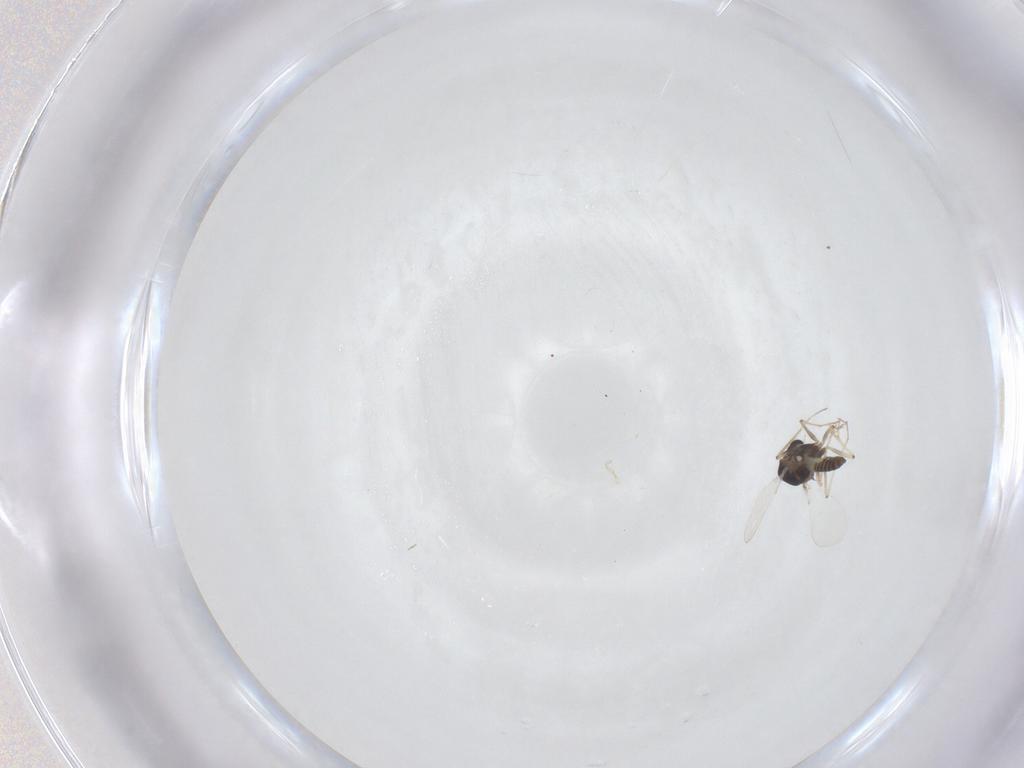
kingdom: Animalia
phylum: Arthropoda
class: Insecta
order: Diptera
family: Chironomidae
